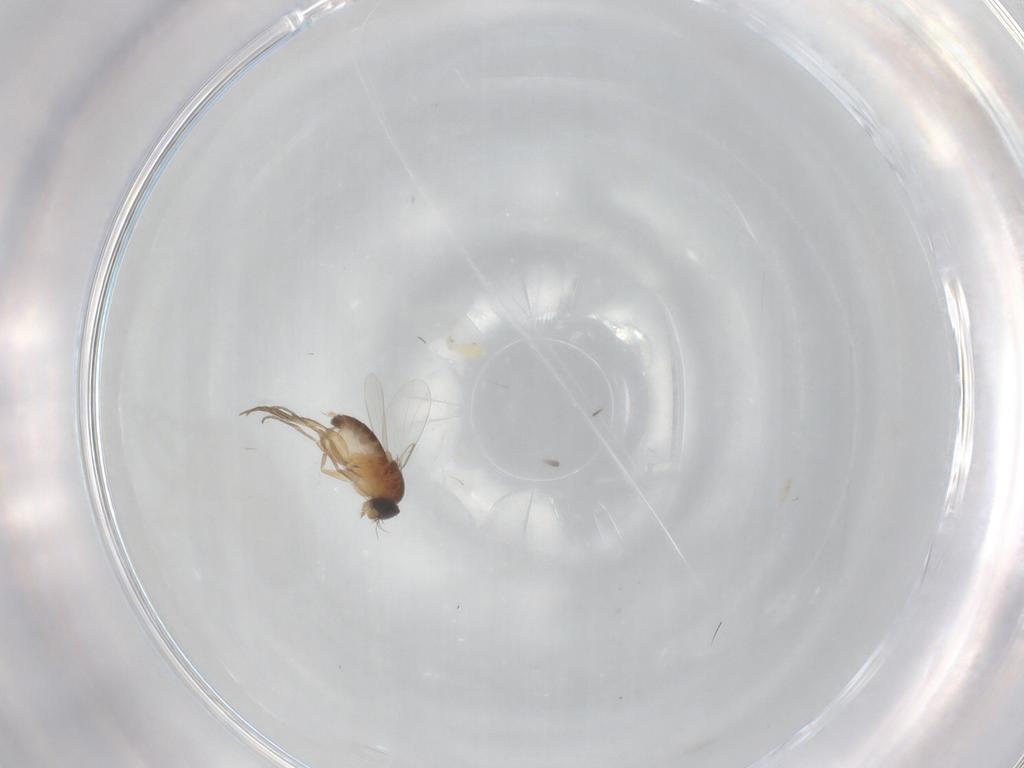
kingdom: Animalia
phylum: Arthropoda
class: Insecta
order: Diptera
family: Phoridae
